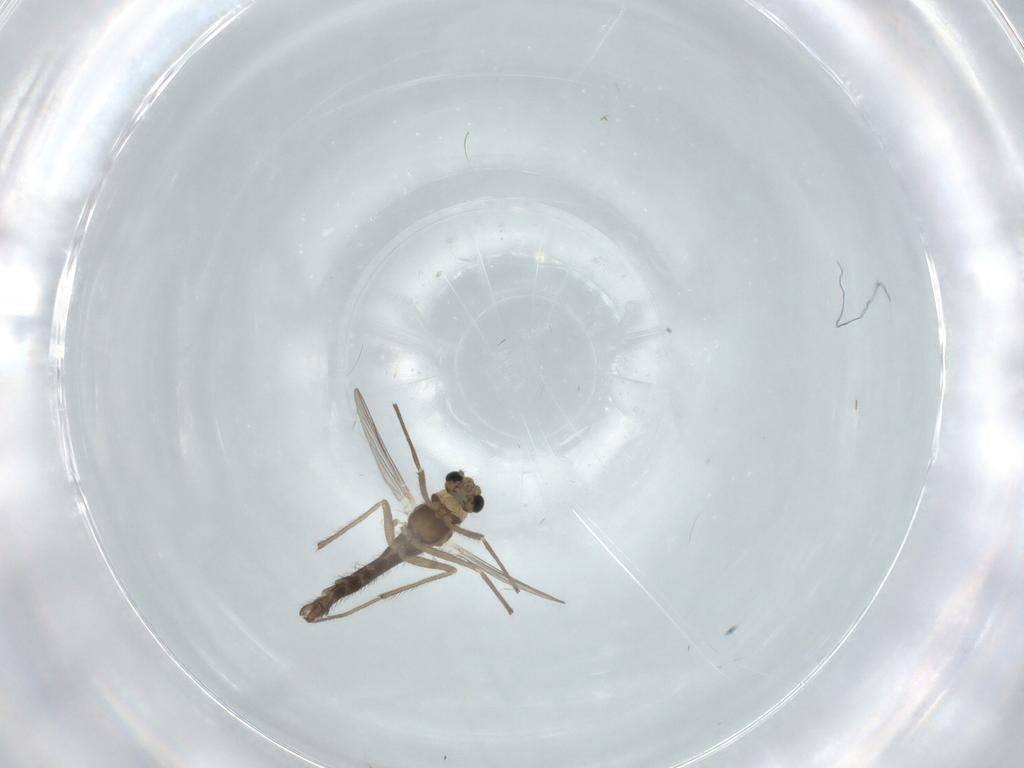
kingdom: Animalia
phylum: Arthropoda
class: Insecta
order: Diptera
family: Chironomidae
